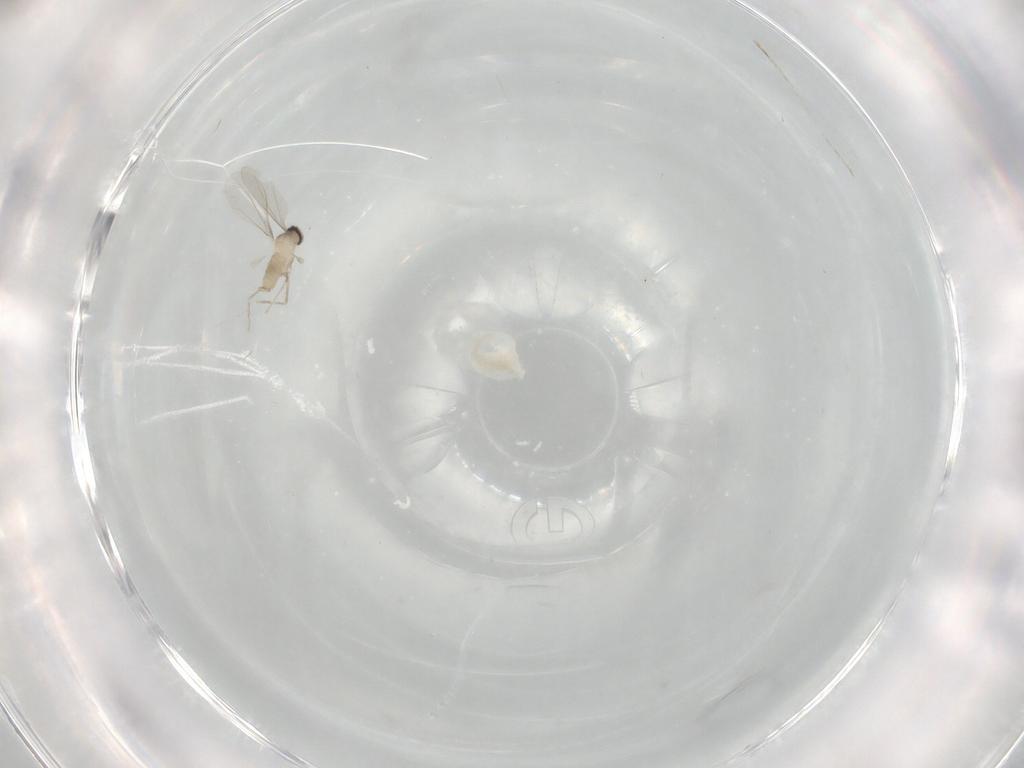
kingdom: Animalia
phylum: Arthropoda
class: Insecta
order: Diptera
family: Cecidomyiidae
